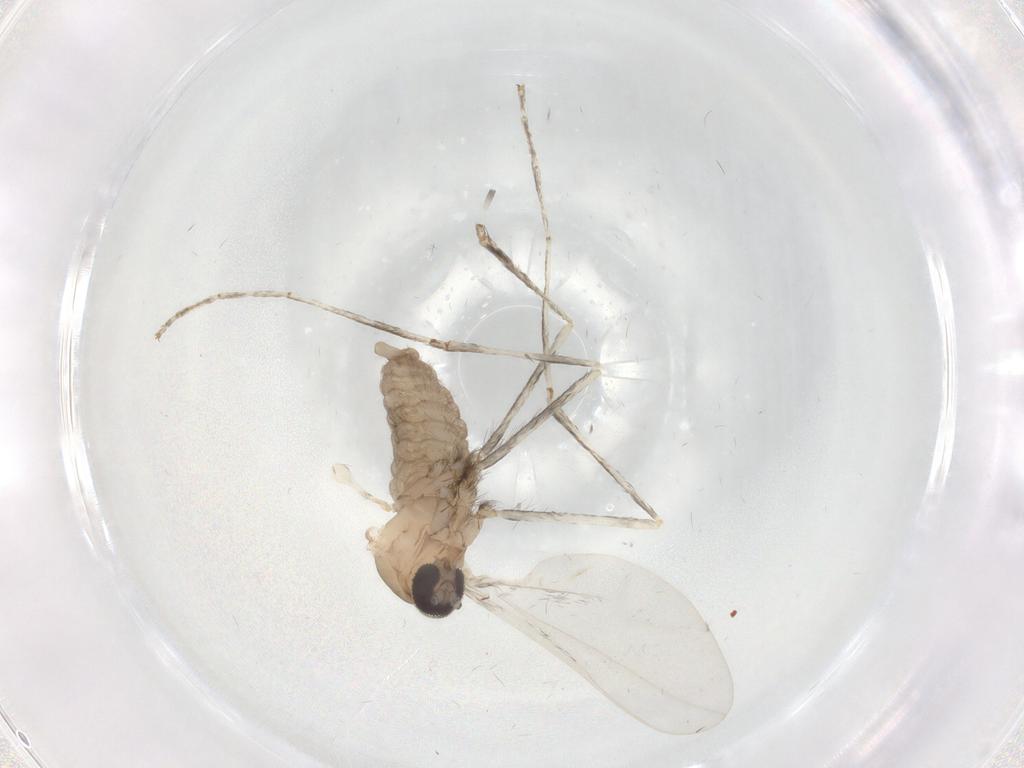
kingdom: Animalia
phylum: Arthropoda
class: Insecta
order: Diptera
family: Cecidomyiidae
